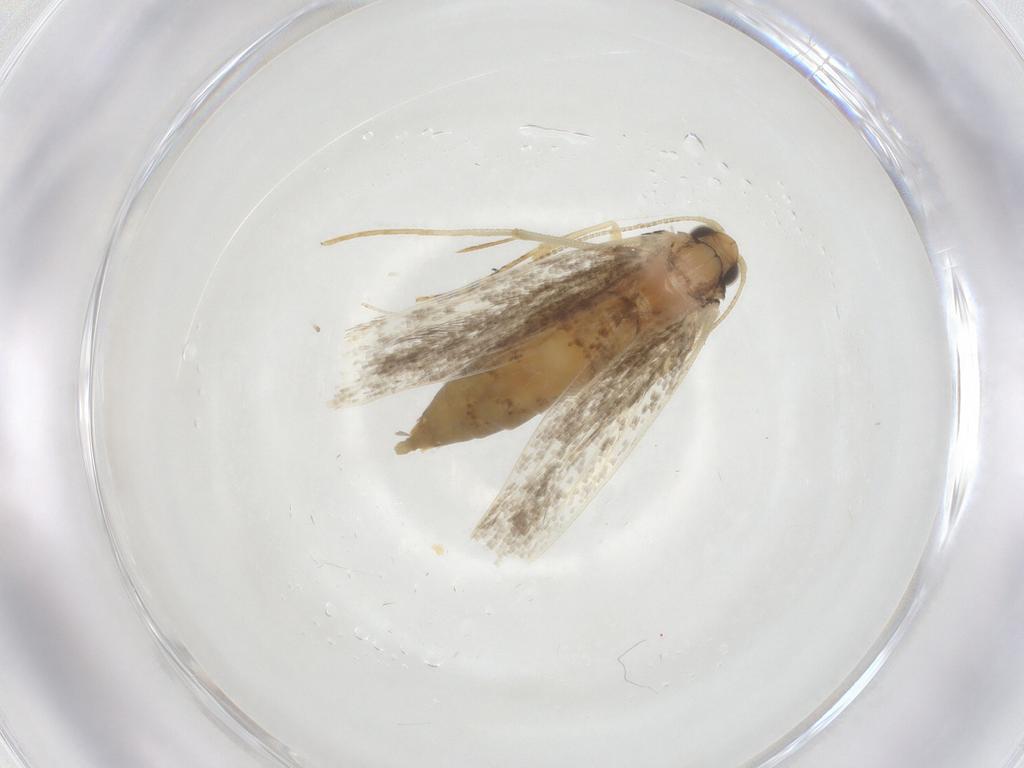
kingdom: Animalia
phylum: Arthropoda
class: Insecta
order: Lepidoptera
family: Tineidae
